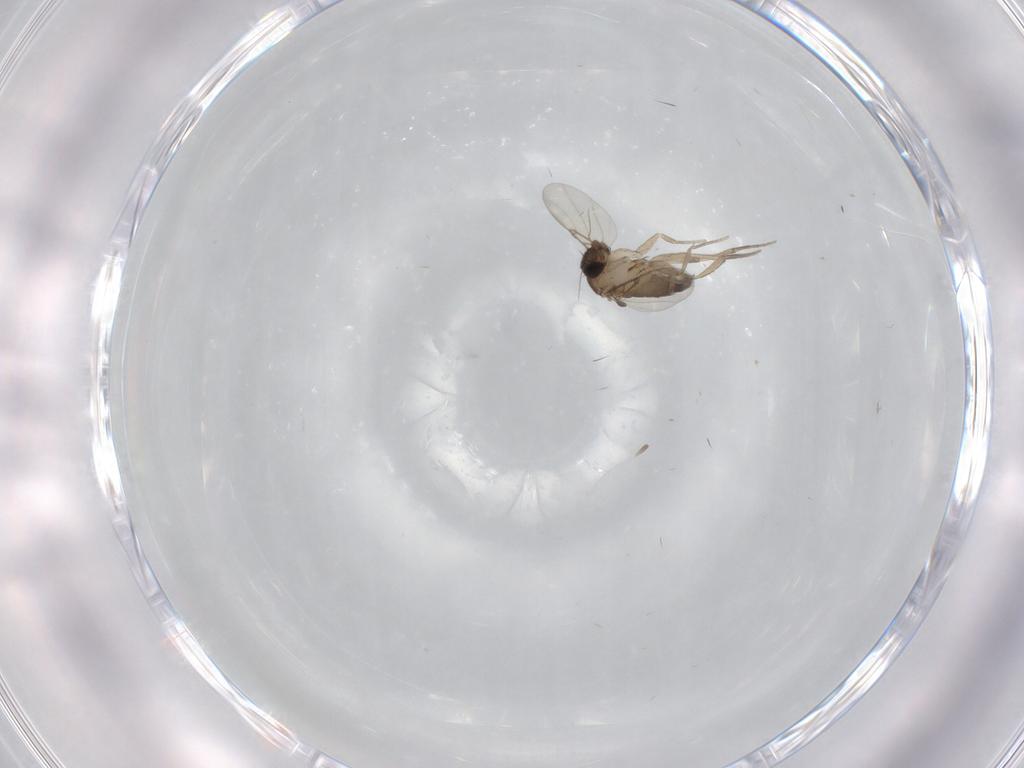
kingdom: Animalia
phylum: Arthropoda
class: Insecta
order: Diptera
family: Phoridae
